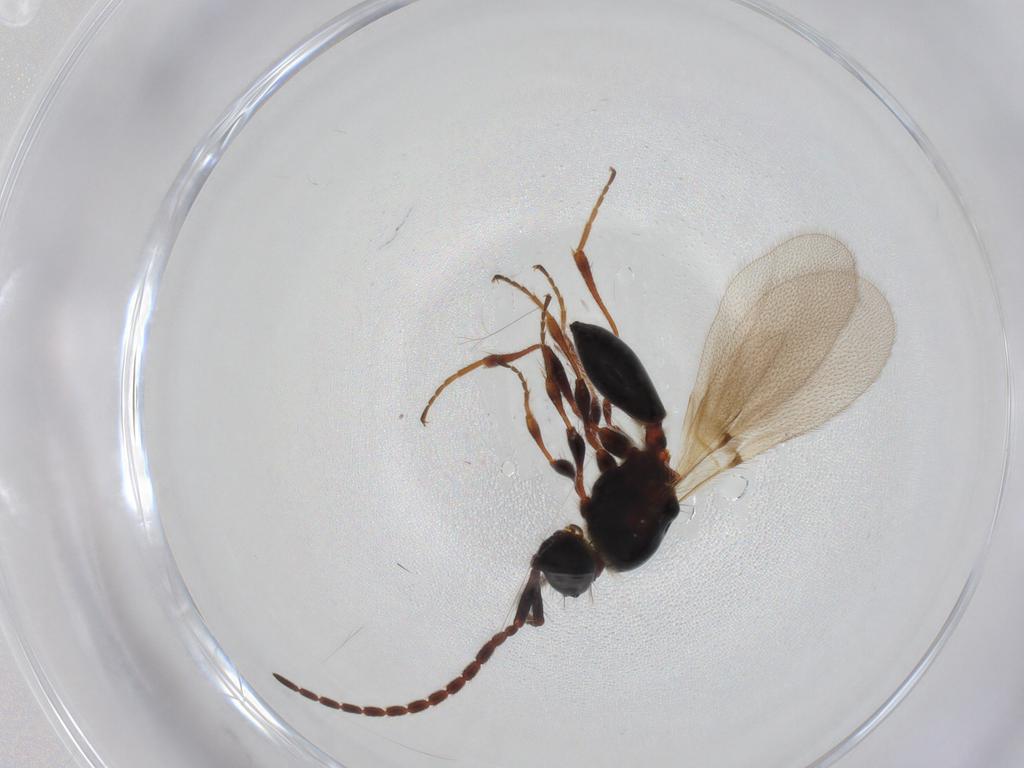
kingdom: Animalia
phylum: Arthropoda
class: Insecta
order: Hymenoptera
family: Diapriidae
